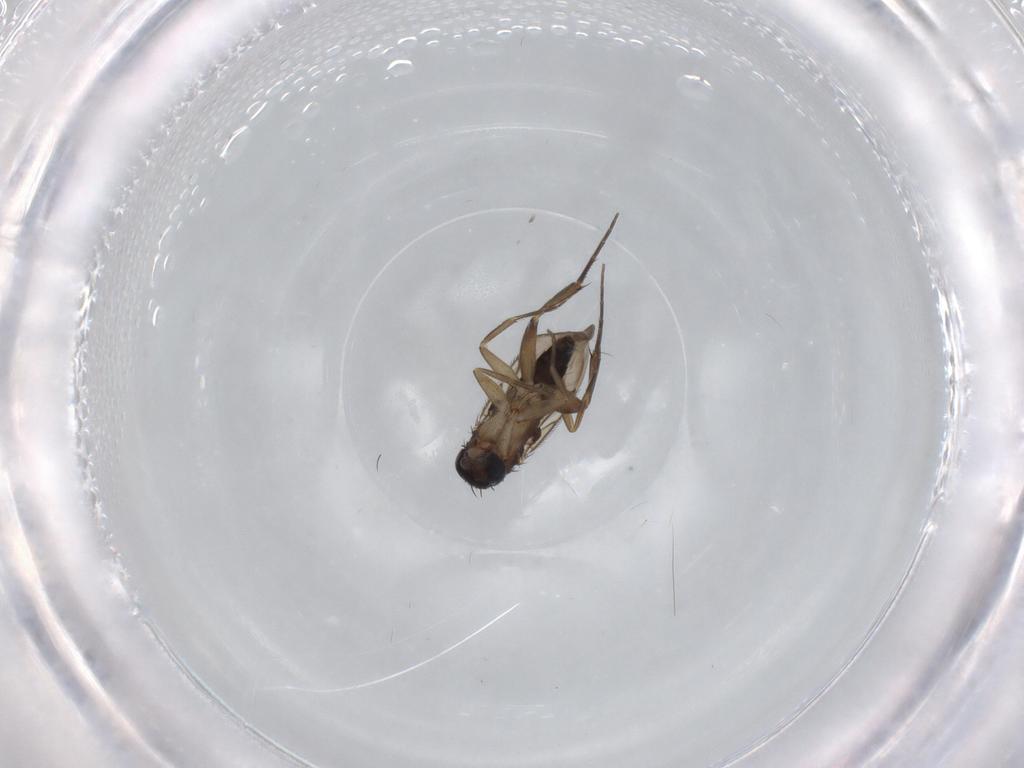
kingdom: Animalia
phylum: Arthropoda
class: Insecta
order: Diptera
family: Phoridae
